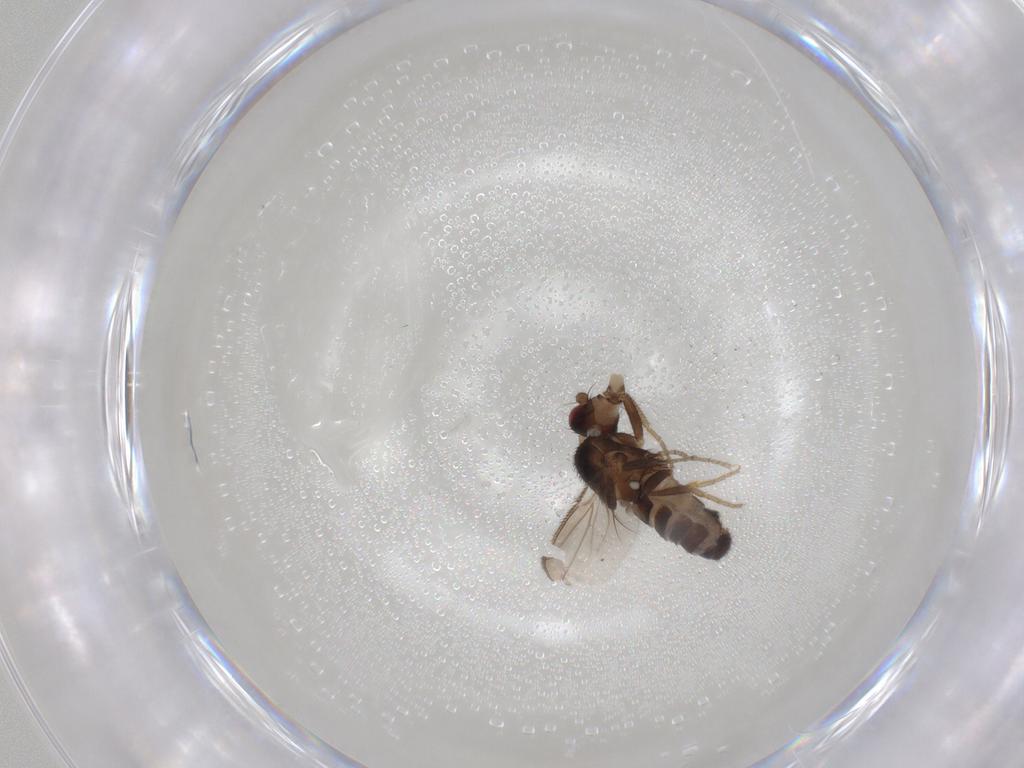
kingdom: Animalia
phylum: Arthropoda
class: Insecta
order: Diptera
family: Sphaeroceridae
